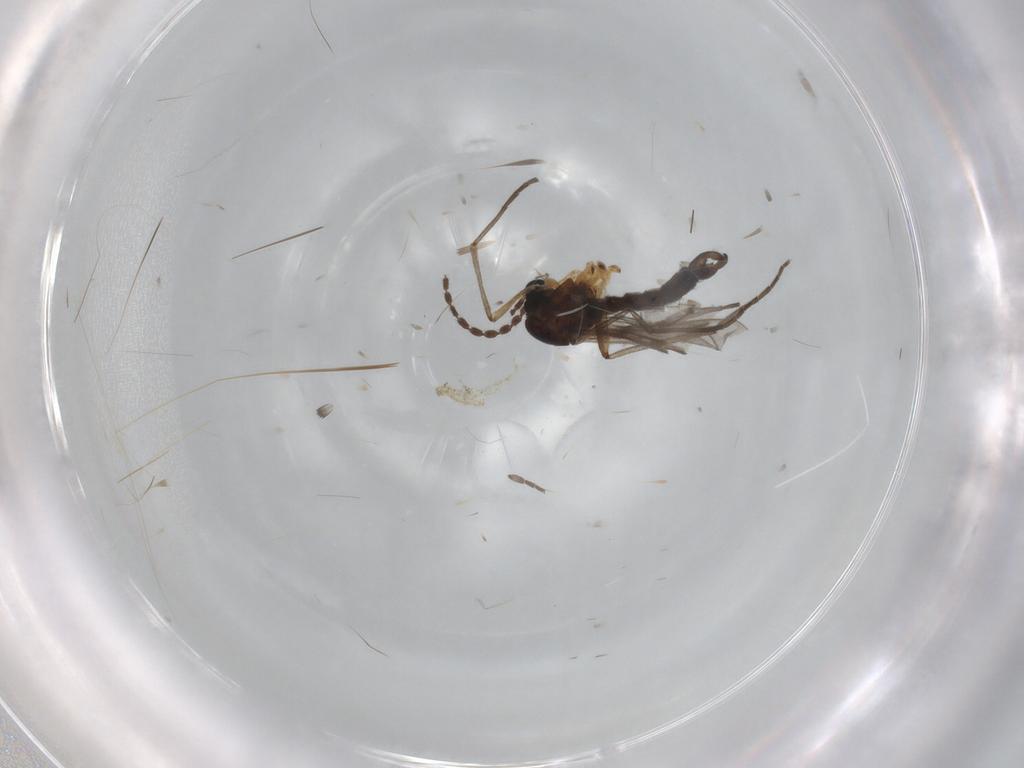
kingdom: Animalia
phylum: Arthropoda
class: Insecta
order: Diptera
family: Sciaridae
